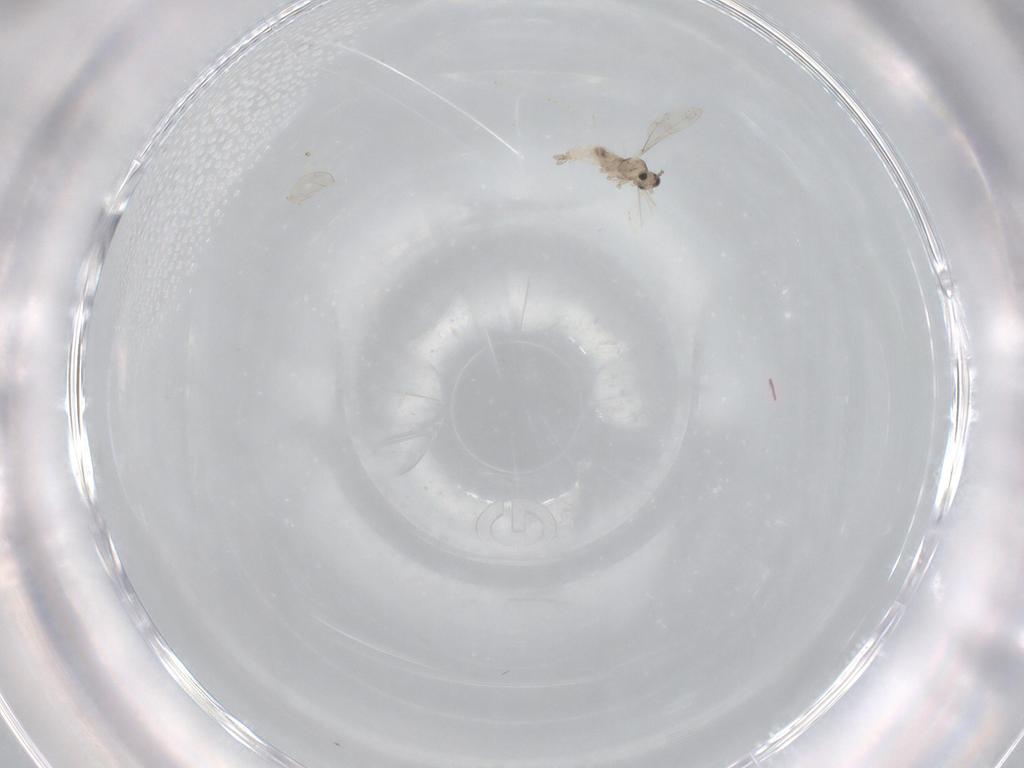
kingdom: Animalia
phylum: Arthropoda
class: Insecta
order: Diptera
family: Cecidomyiidae
